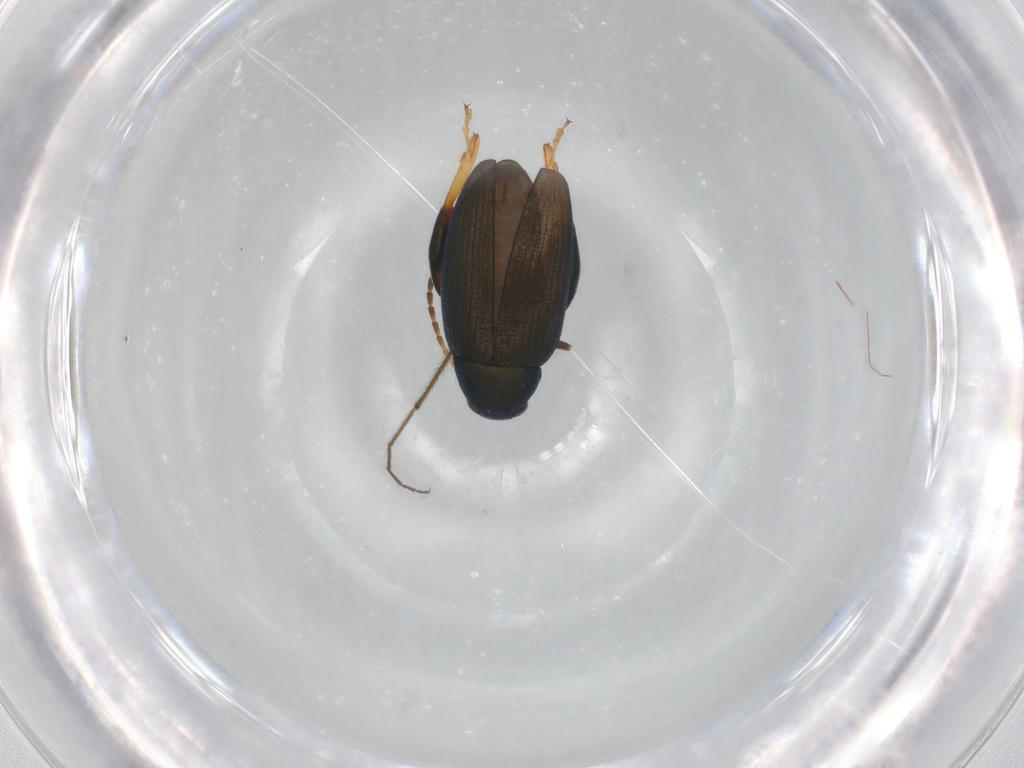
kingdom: Animalia
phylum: Arthropoda
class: Insecta
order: Coleoptera
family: Chrysomelidae
